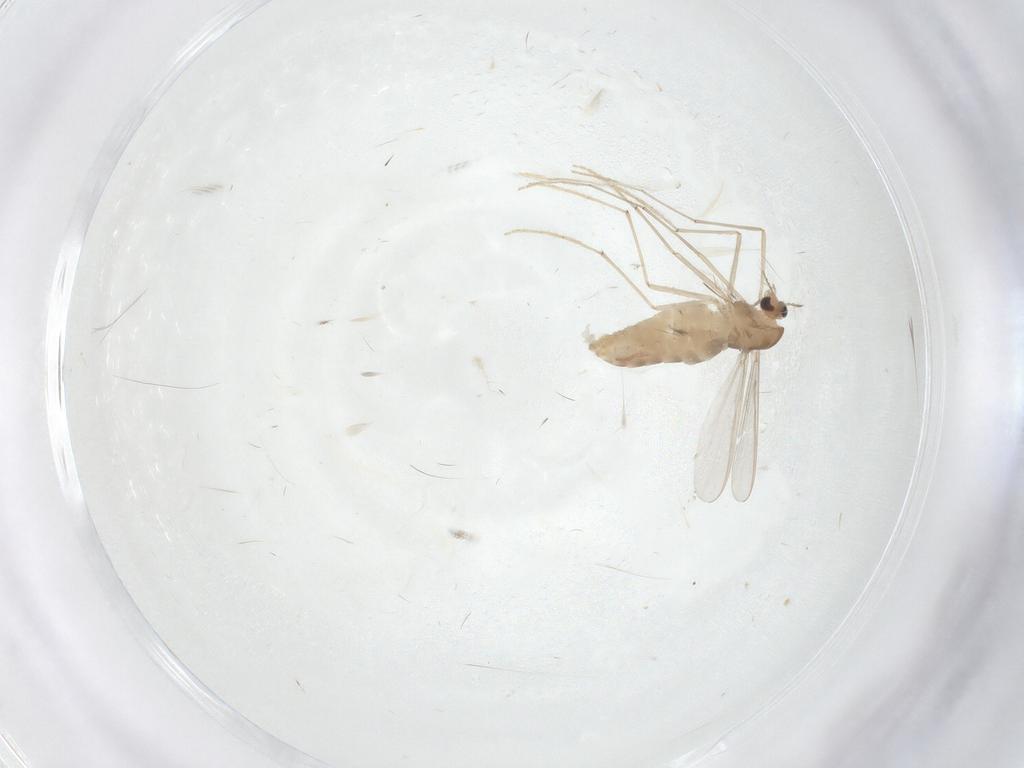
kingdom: Animalia
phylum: Arthropoda
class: Insecta
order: Diptera
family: Chironomidae
